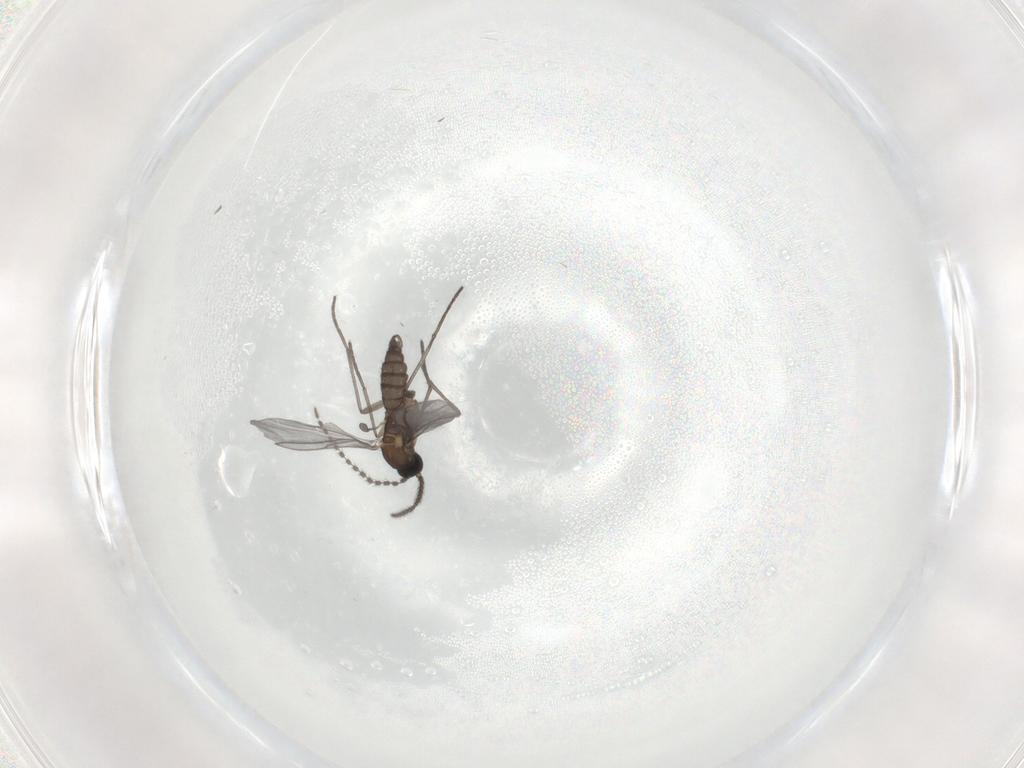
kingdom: Animalia
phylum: Arthropoda
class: Insecta
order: Diptera
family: Sciaridae
